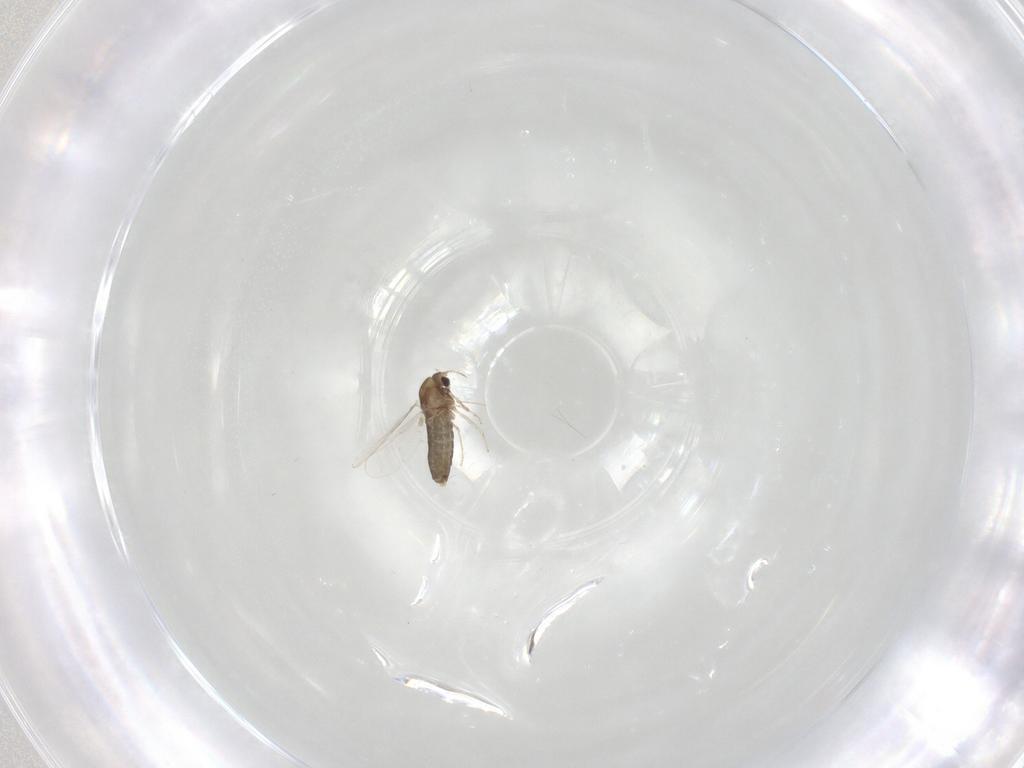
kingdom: Animalia
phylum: Arthropoda
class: Insecta
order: Diptera
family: Chironomidae
